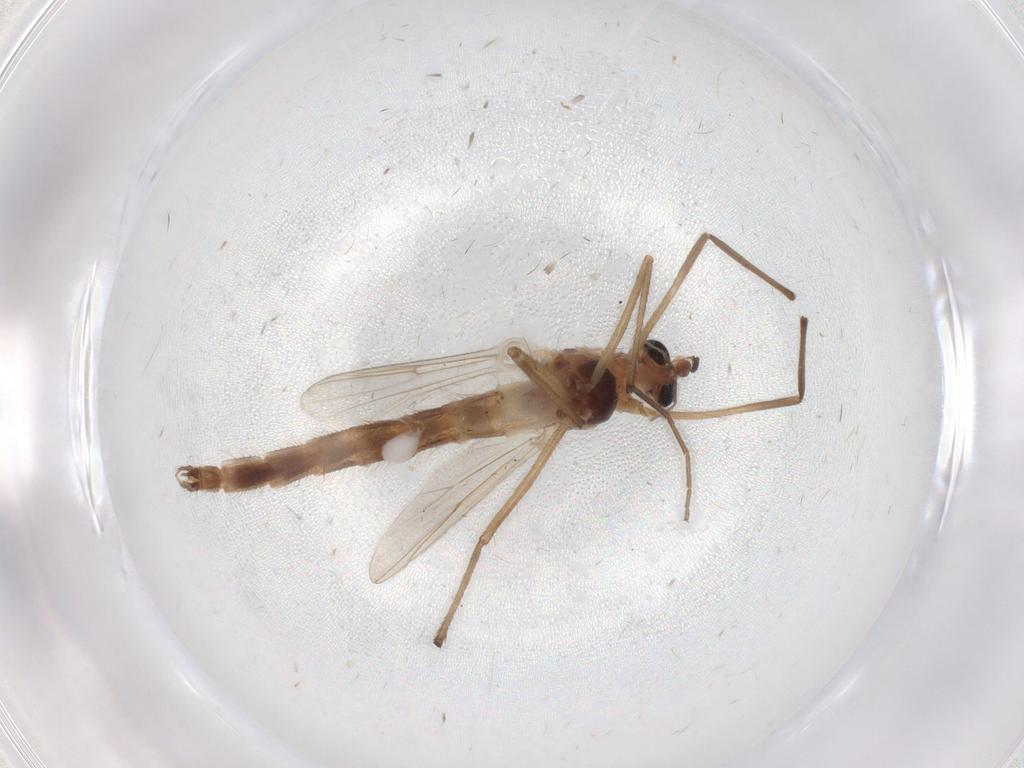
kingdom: Animalia
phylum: Arthropoda
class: Insecta
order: Diptera
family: Chironomidae
